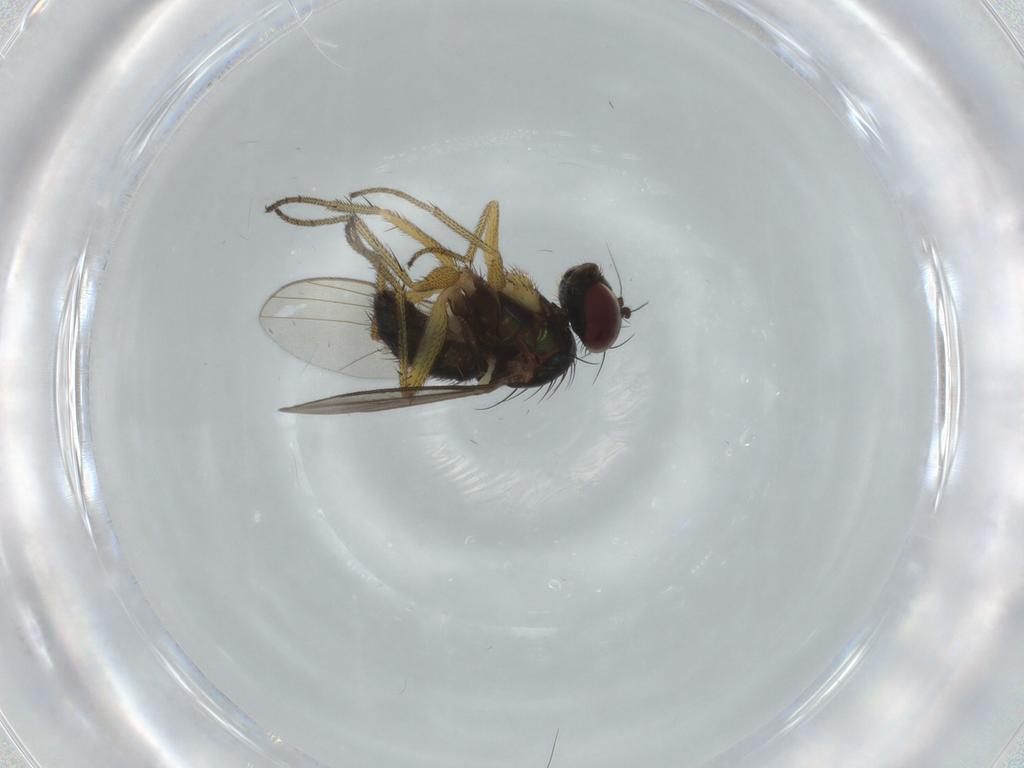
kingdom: Animalia
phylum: Arthropoda
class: Insecta
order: Diptera
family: Dolichopodidae
